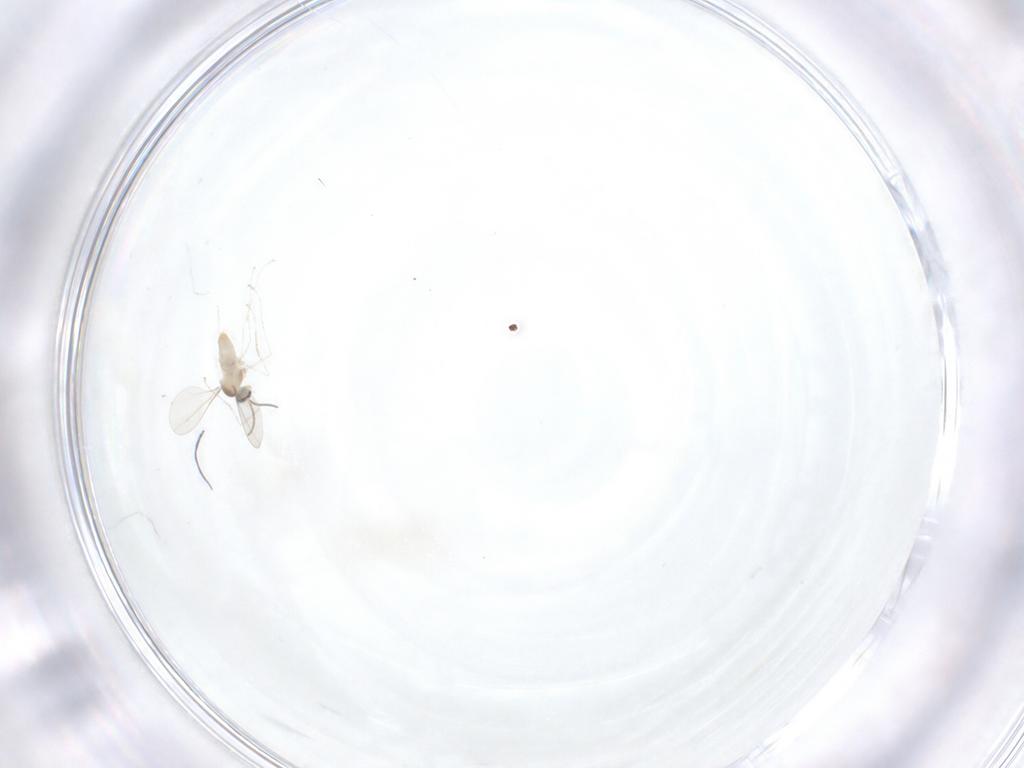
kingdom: Animalia
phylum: Arthropoda
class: Insecta
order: Diptera
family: Cecidomyiidae
